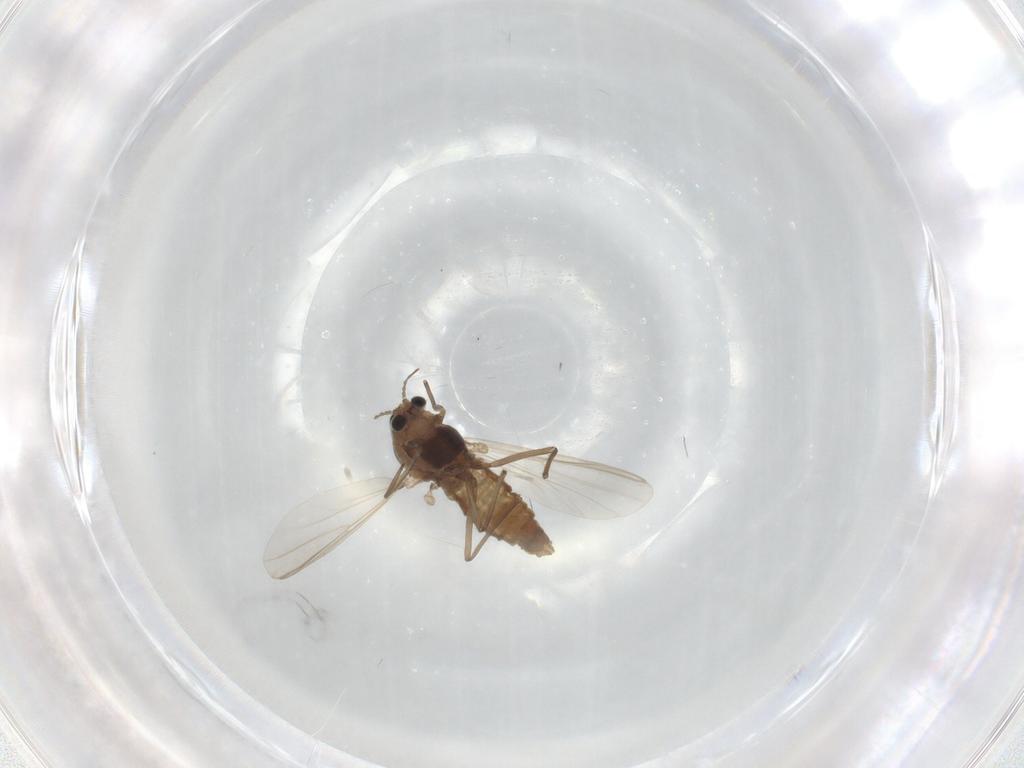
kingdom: Animalia
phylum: Arthropoda
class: Insecta
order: Diptera
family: Chironomidae
